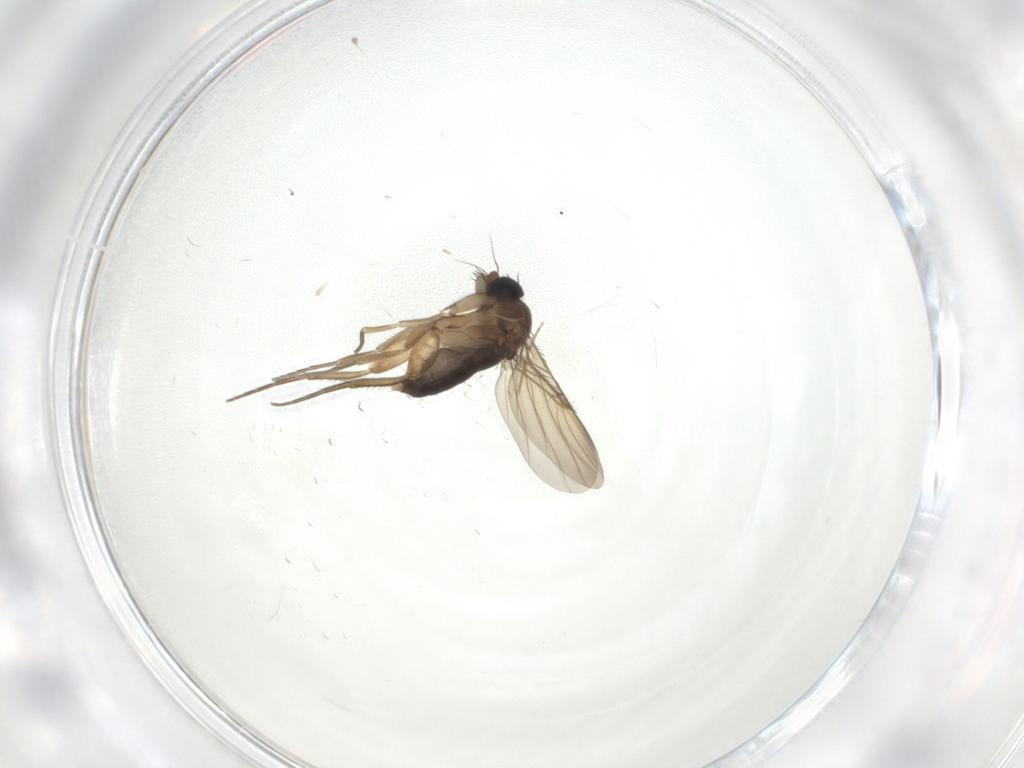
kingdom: Animalia
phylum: Arthropoda
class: Insecta
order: Diptera
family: Phoridae
